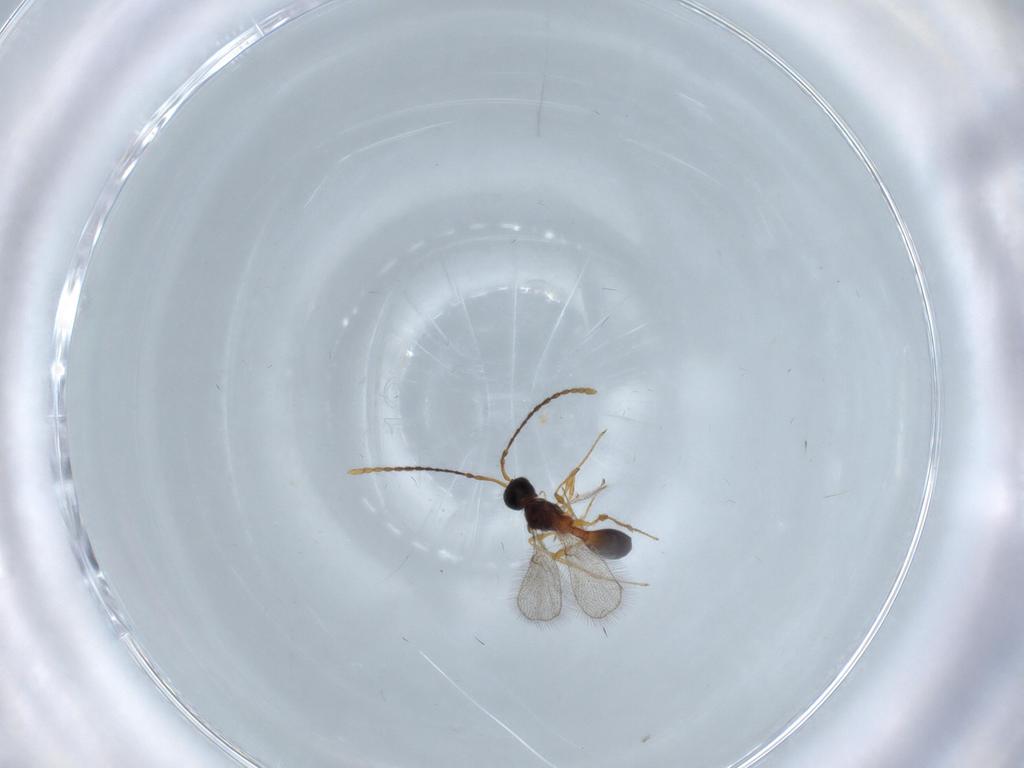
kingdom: Animalia
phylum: Arthropoda
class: Insecta
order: Hymenoptera
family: Diapriidae
